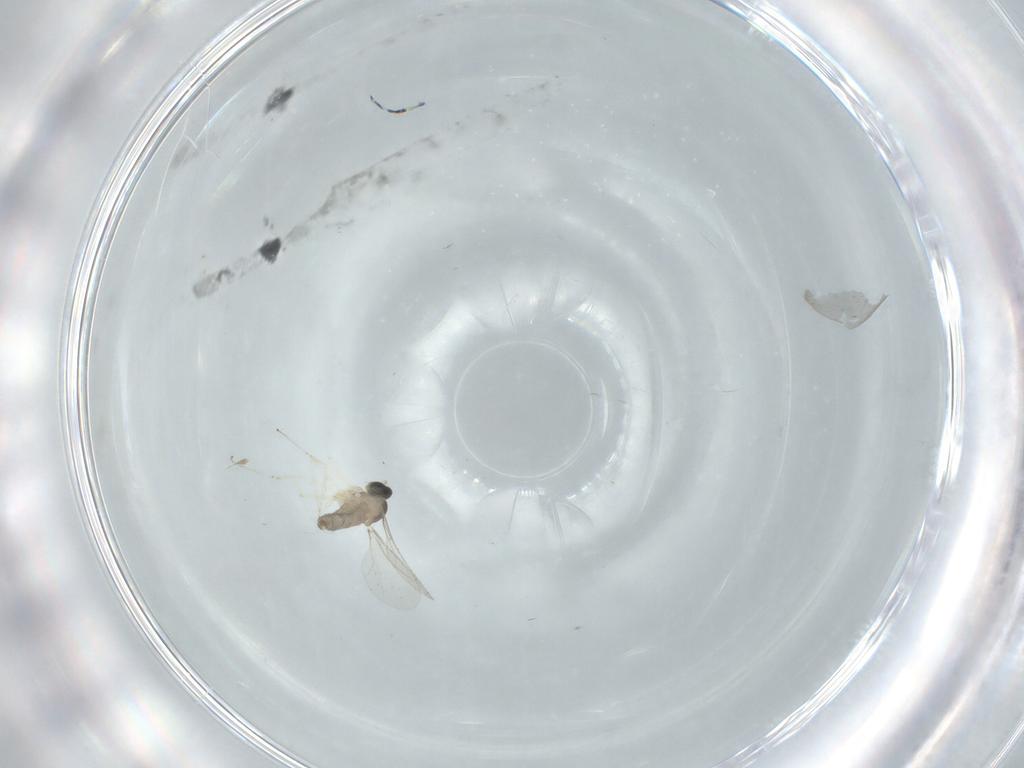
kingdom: Animalia
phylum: Arthropoda
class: Insecta
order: Diptera
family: Cecidomyiidae
